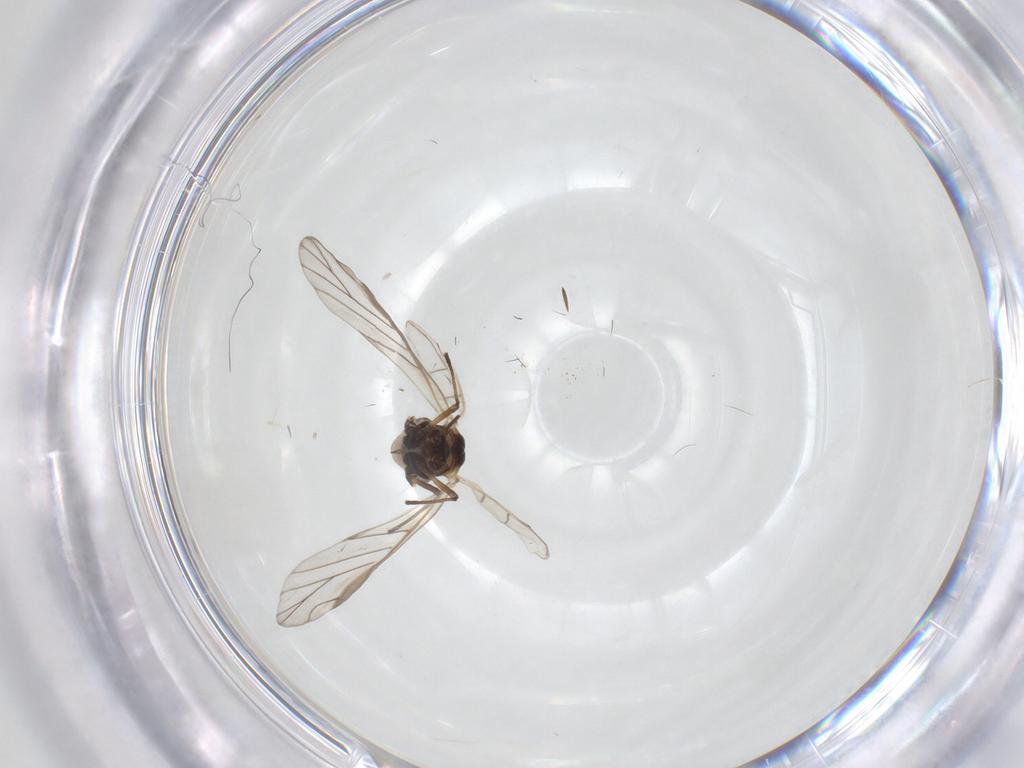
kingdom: Animalia
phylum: Arthropoda
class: Insecta
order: Hemiptera
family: Aphididae
